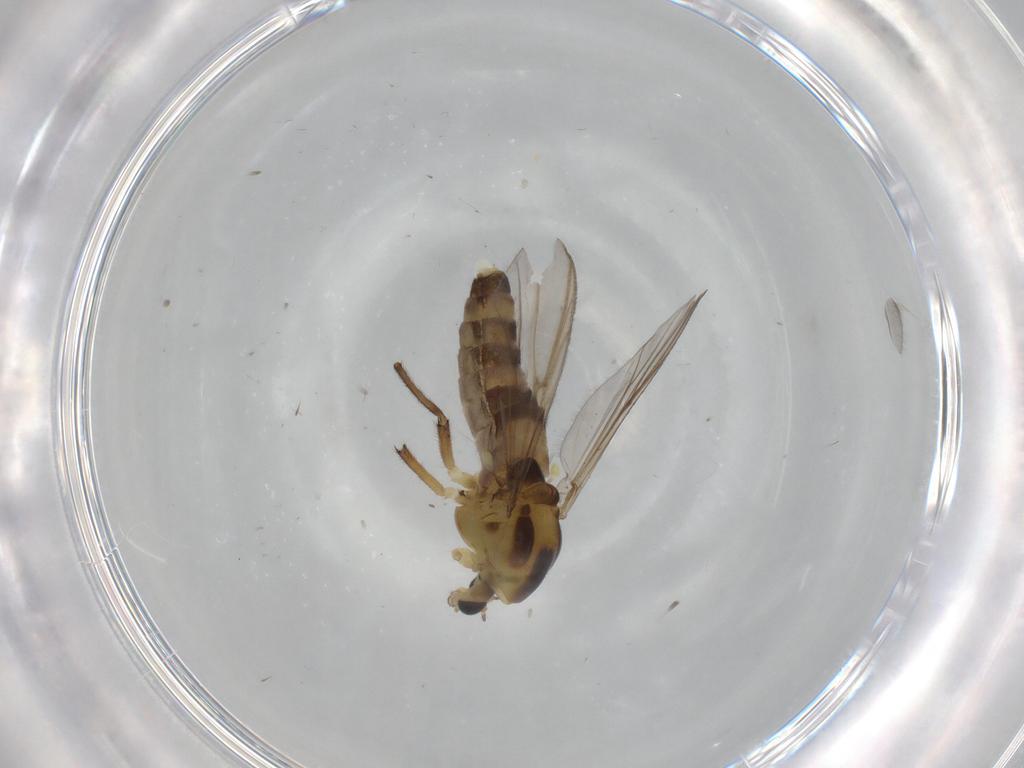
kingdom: Animalia
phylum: Arthropoda
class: Insecta
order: Diptera
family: Chironomidae
